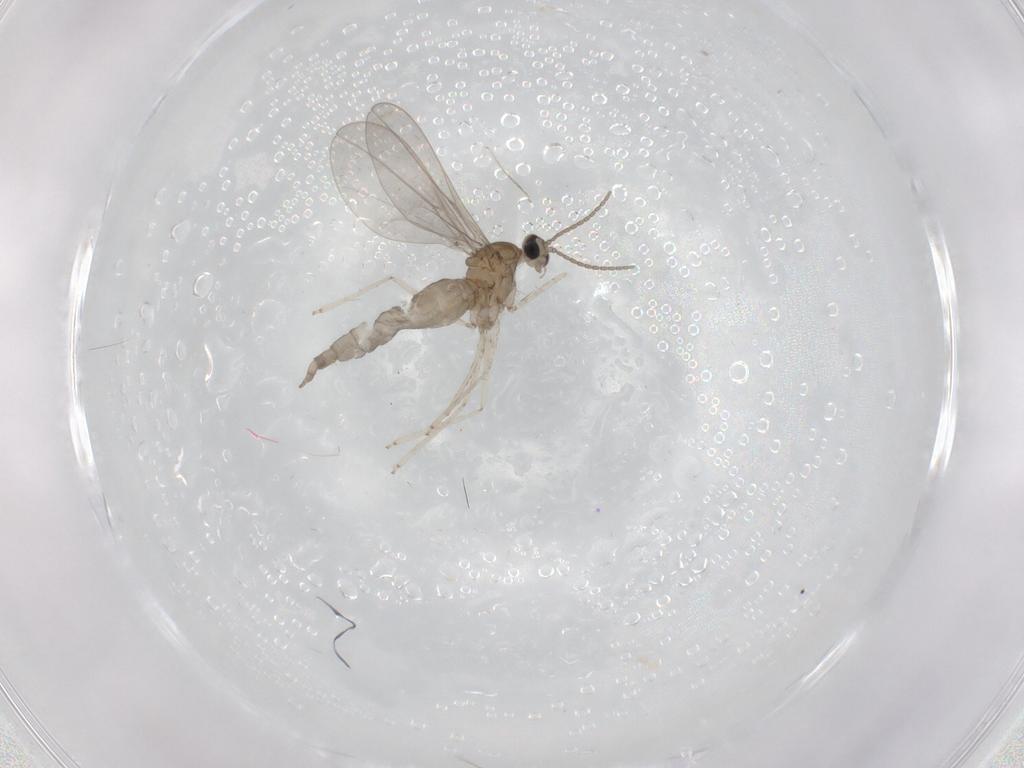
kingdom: Animalia
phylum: Arthropoda
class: Insecta
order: Diptera
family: Cecidomyiidae
